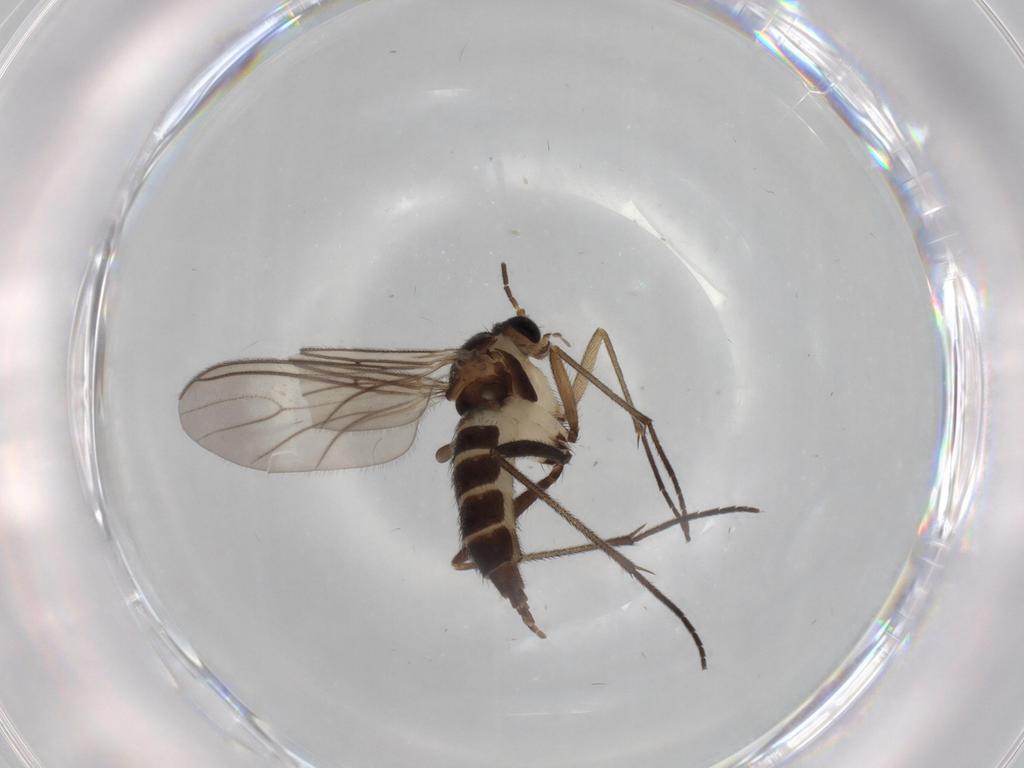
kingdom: Animalia
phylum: Arthropoda
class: Insecta
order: Diptera
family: Sciaridae
